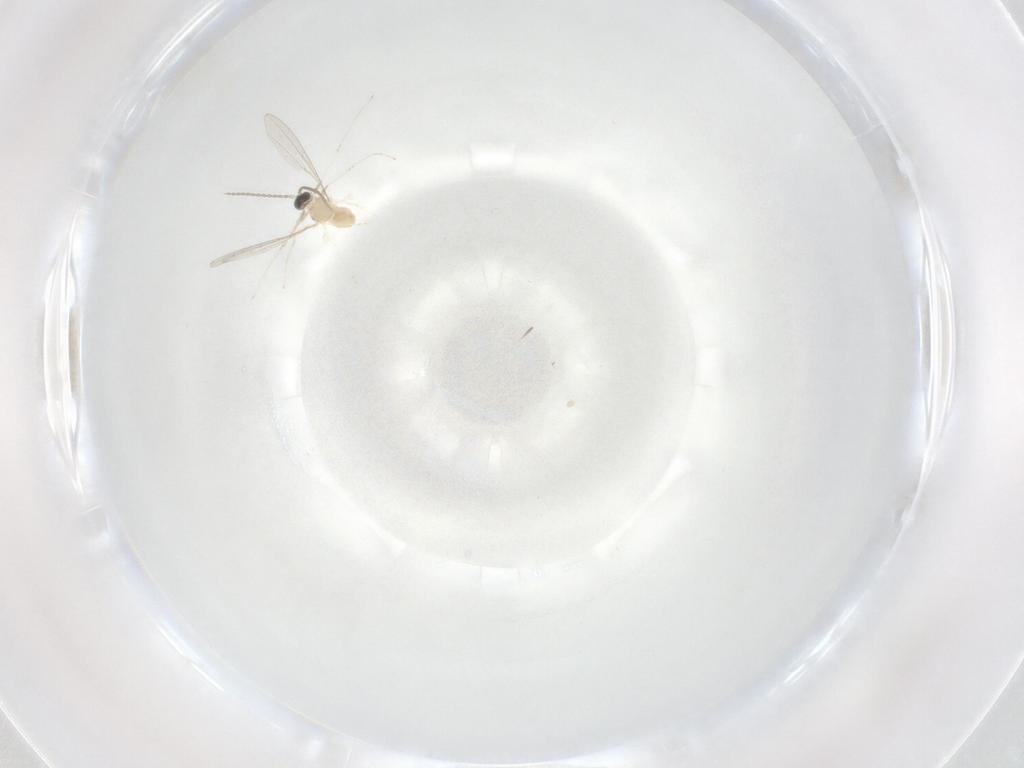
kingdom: Animalia
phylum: Arthropoda
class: Insecta
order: Diptera
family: Cecidomyiidae
